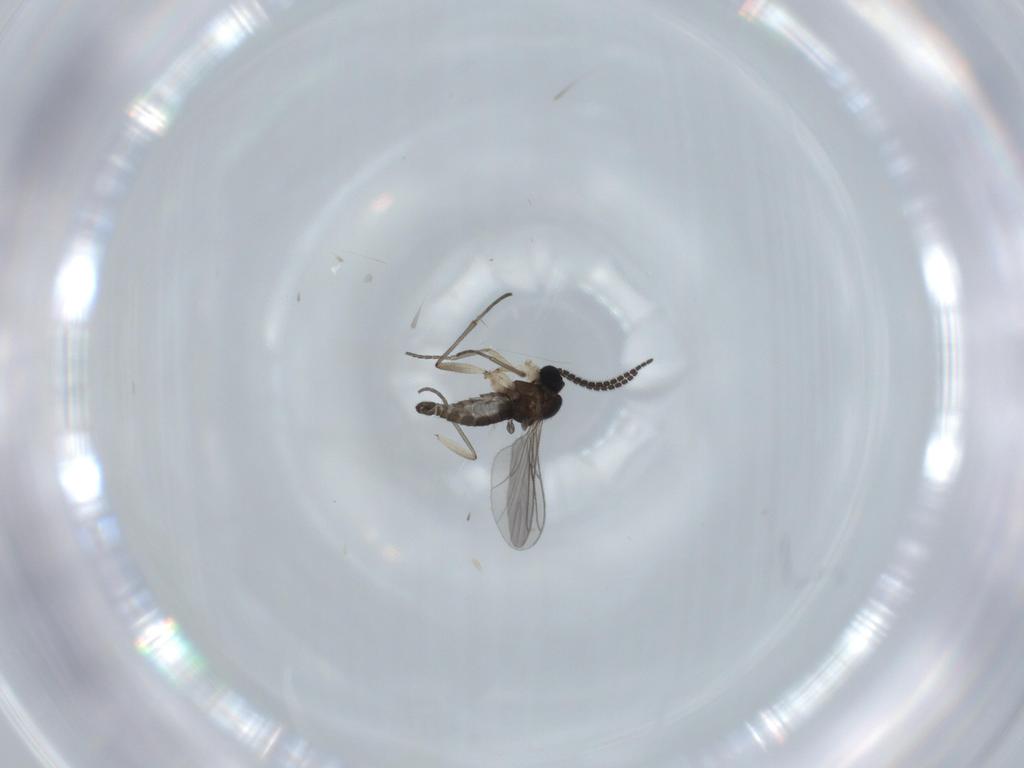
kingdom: Animalia
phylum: Arthropoda
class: Insecta
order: Diptera
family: Sciaridae
